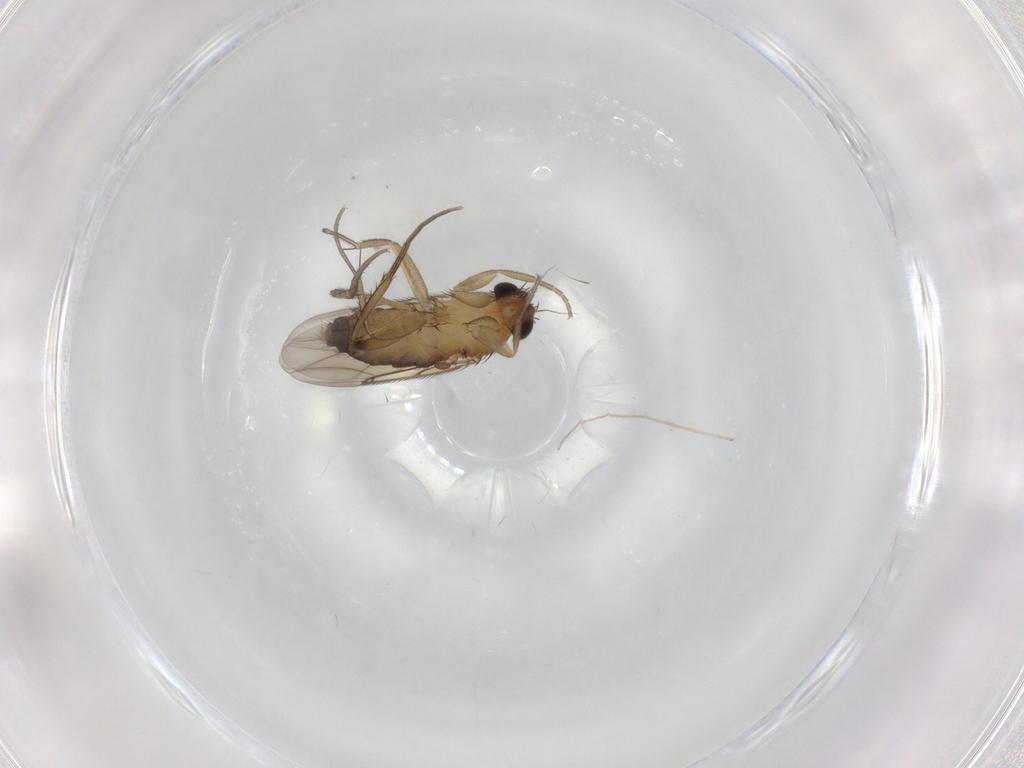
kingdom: Animalia
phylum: Arthropoda
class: Insecta
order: Diptera
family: Phoridae
